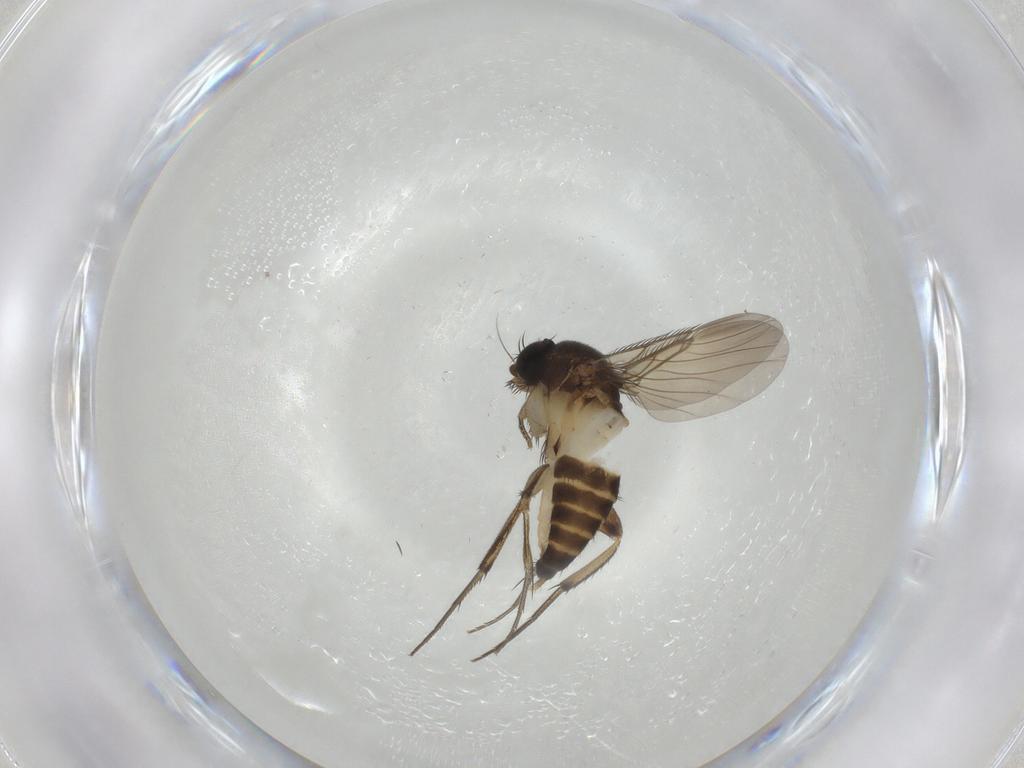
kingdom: Animalia
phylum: Arthropoda
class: Insecta
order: Diptera
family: Phoridae
